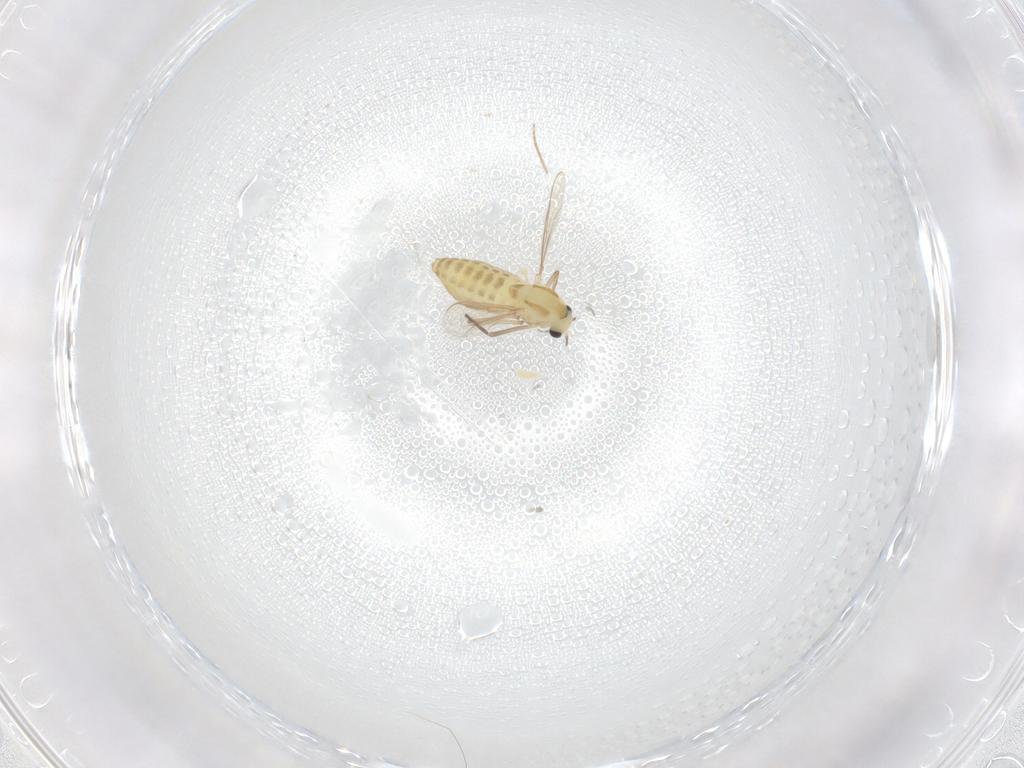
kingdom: Animalia
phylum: Arthropoda
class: Insecta
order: Diptera
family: Chironomidae
